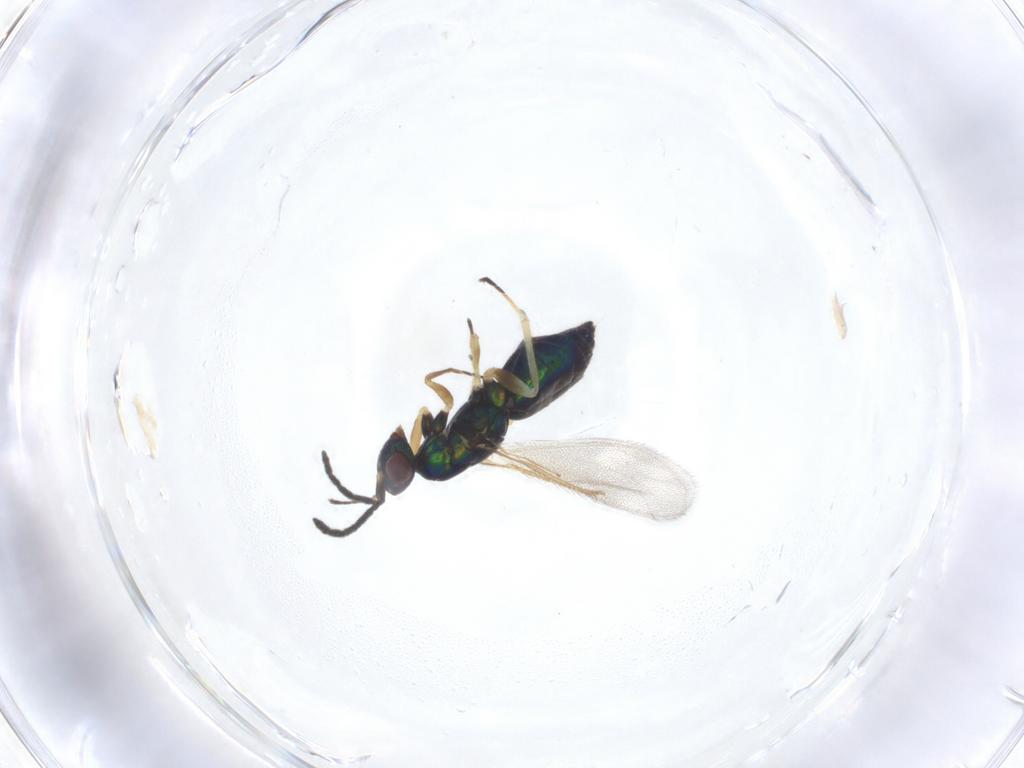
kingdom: Animalia
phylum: Arthropoda
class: Insecta
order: Hymenoptera
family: Eulophidae
